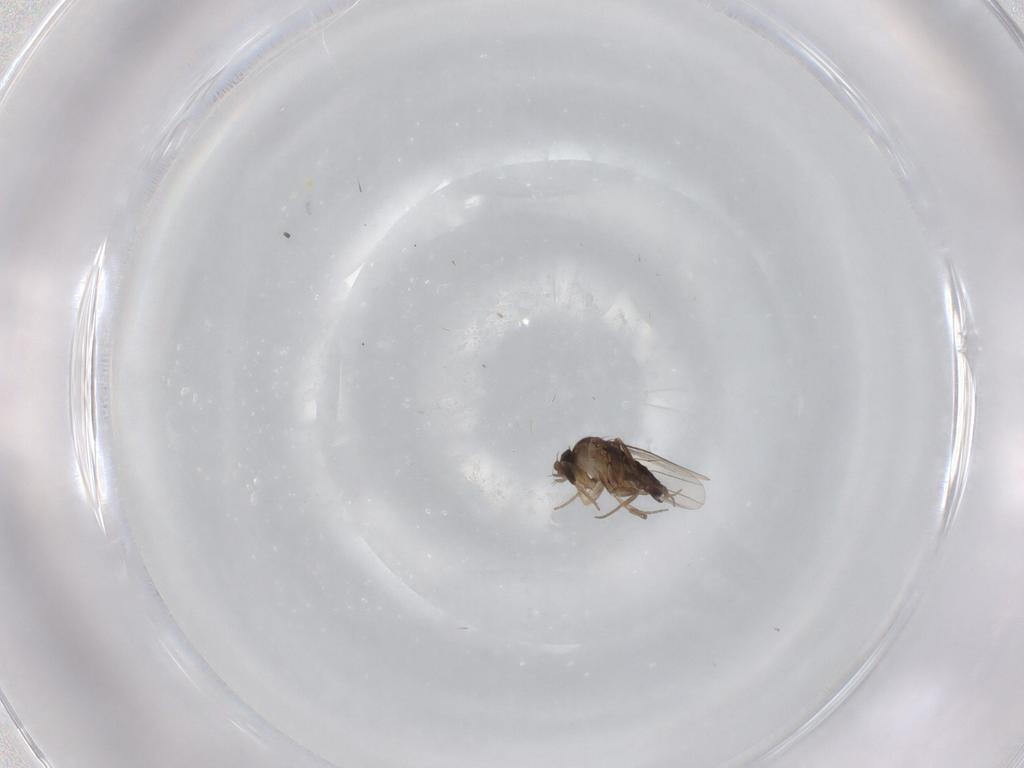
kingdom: Animalia
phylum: Arthropoda
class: Insecta
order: Diptera
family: Phoridae
